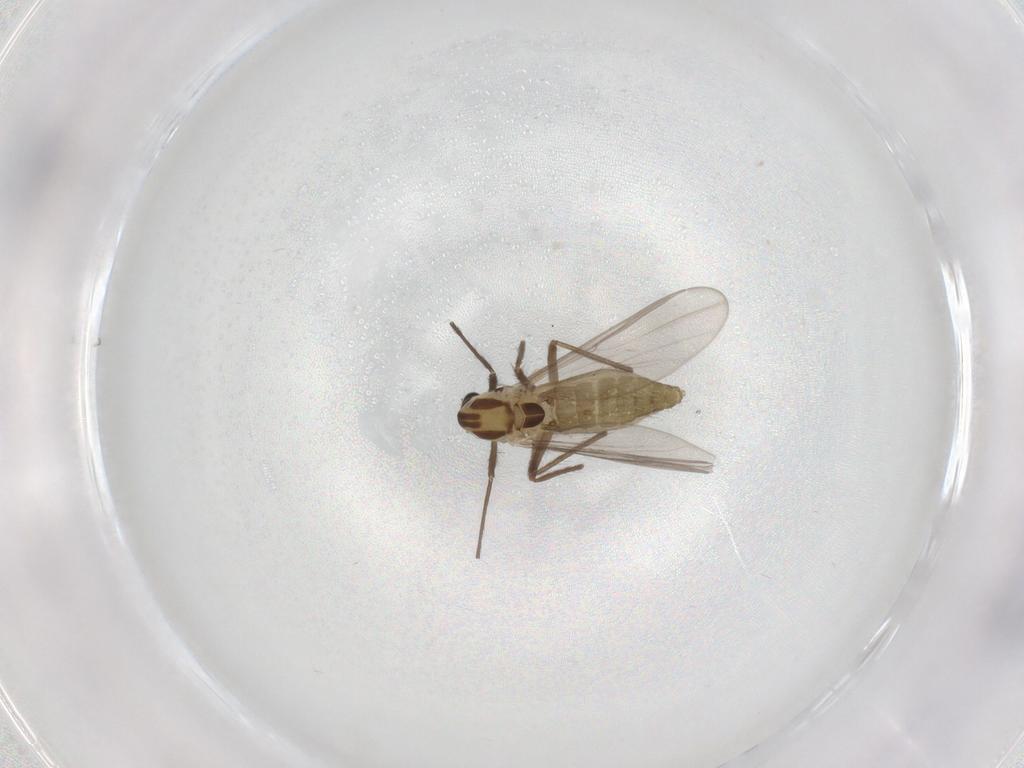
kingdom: Animalia
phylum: Arthropoda
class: Insecta
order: Diptera
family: Chironomidae
